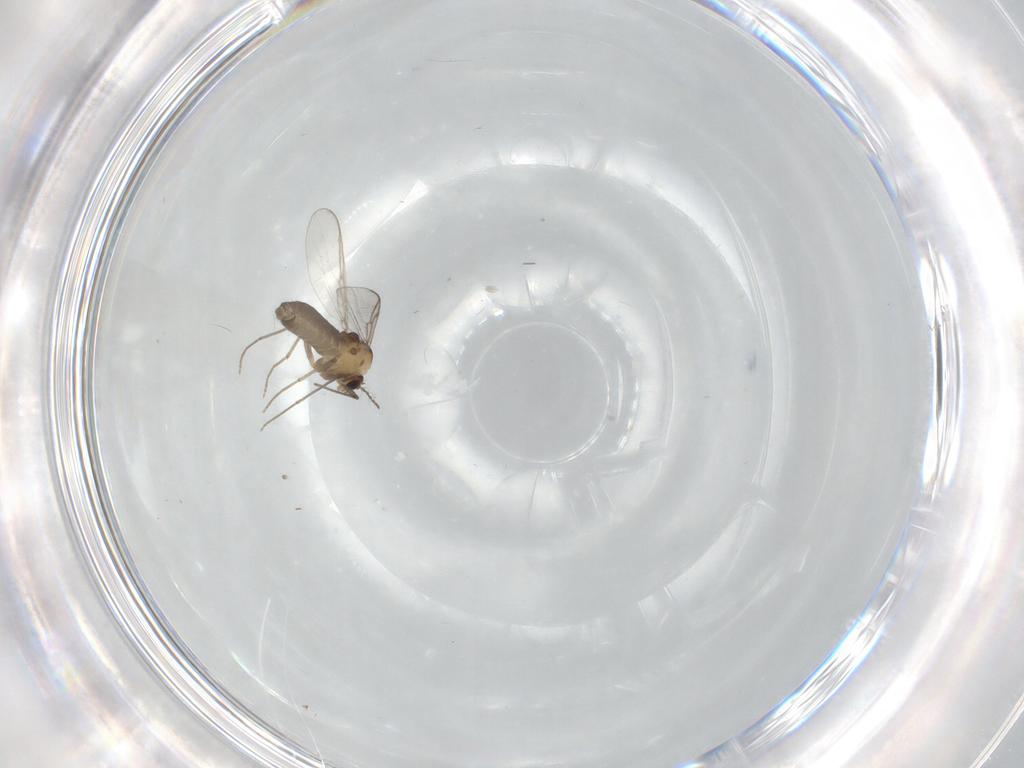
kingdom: Animalia
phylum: Arthropoda
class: Insecta
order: Diptera
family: Chironomidae
